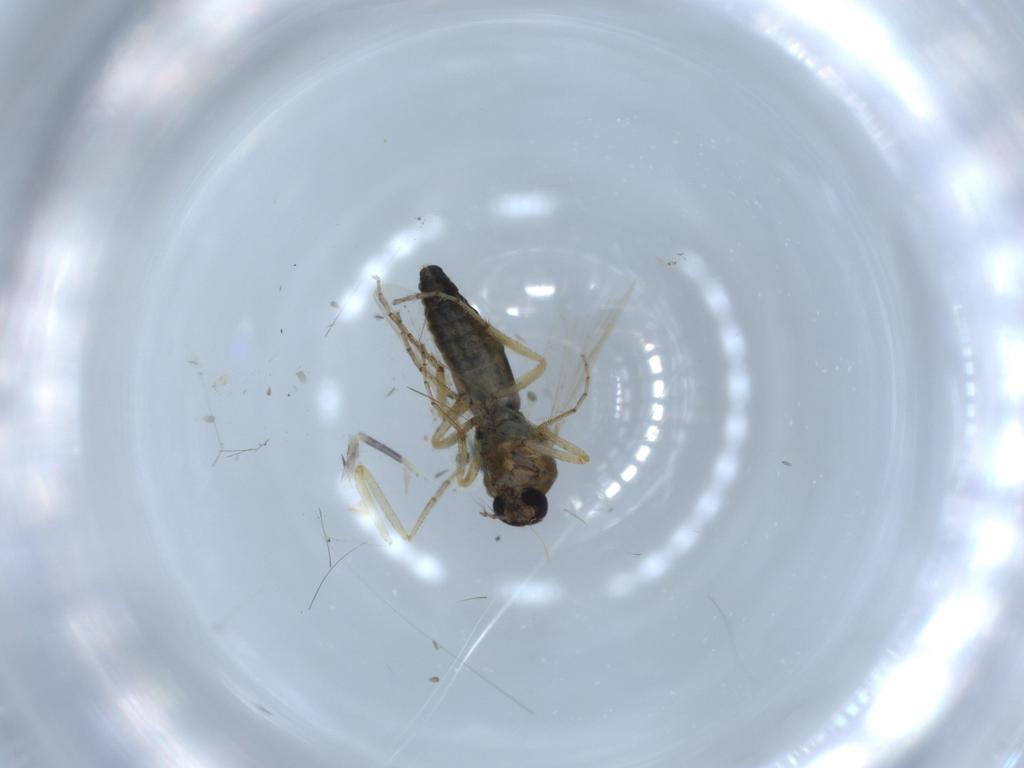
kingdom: Animalia
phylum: Arthropoda
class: Insecta
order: Diptera
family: Ceratopogonidae
